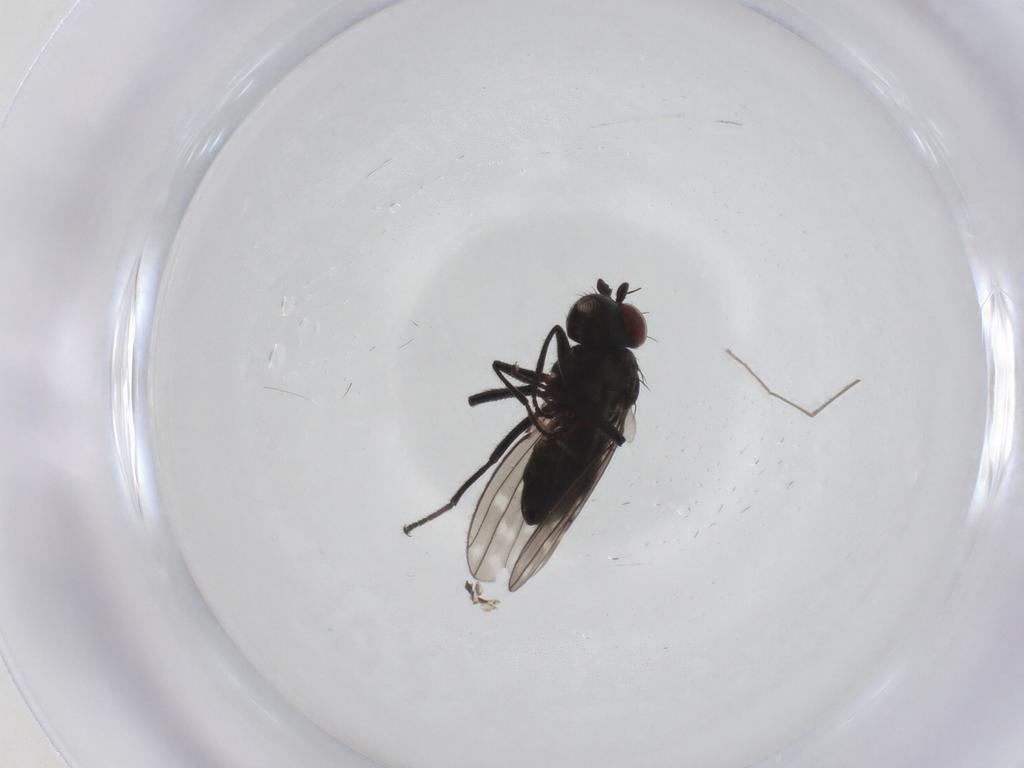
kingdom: Animalia
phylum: Arthropoda
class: Insecta
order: Diptera
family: Ephydridae
